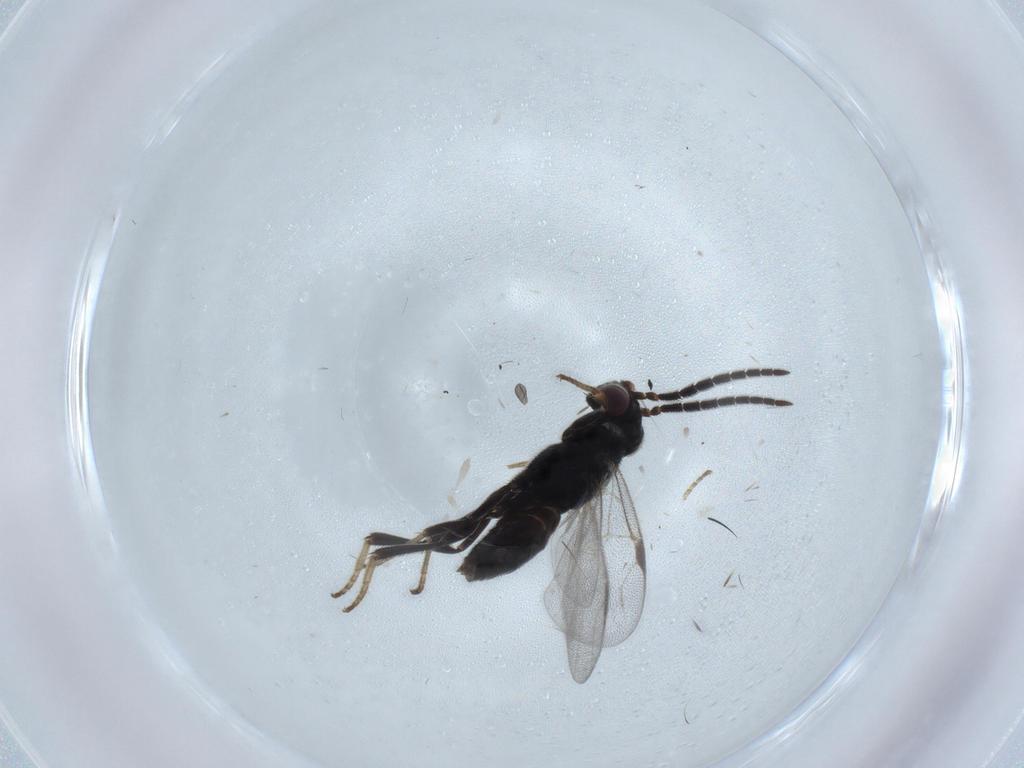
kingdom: Animalia
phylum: Arthropoda
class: Insecta
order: Hymenoptera
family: Dryinidae
